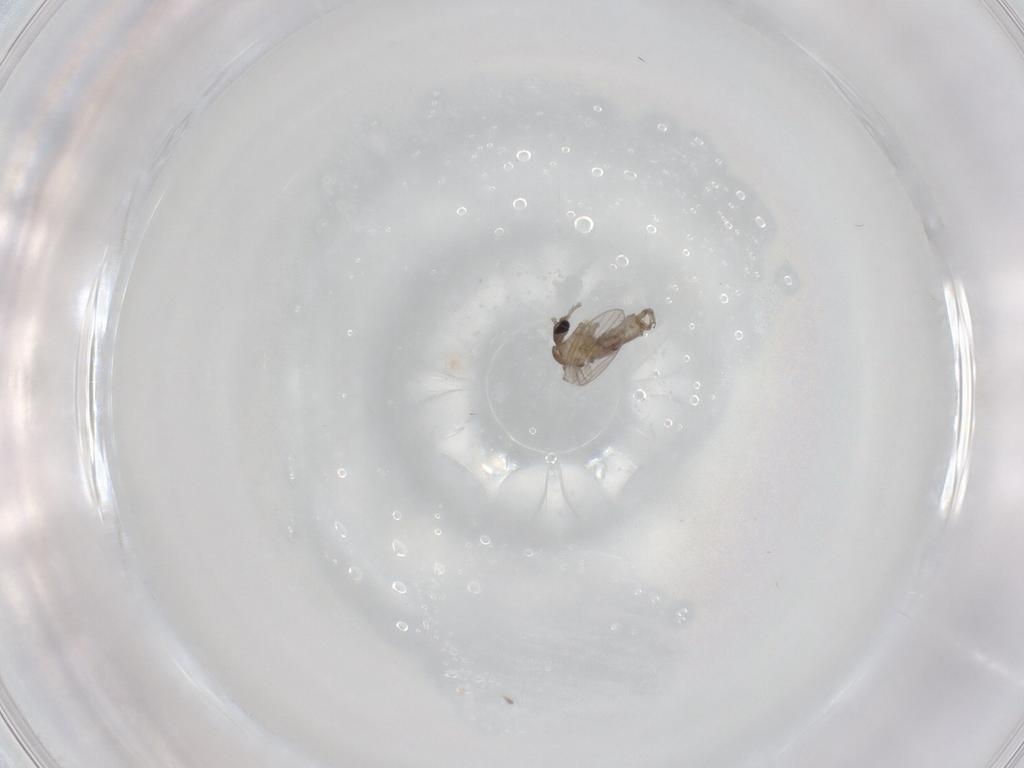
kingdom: Animalia
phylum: Arthropoda
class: Insecta
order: Diptera
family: Psychodidae
